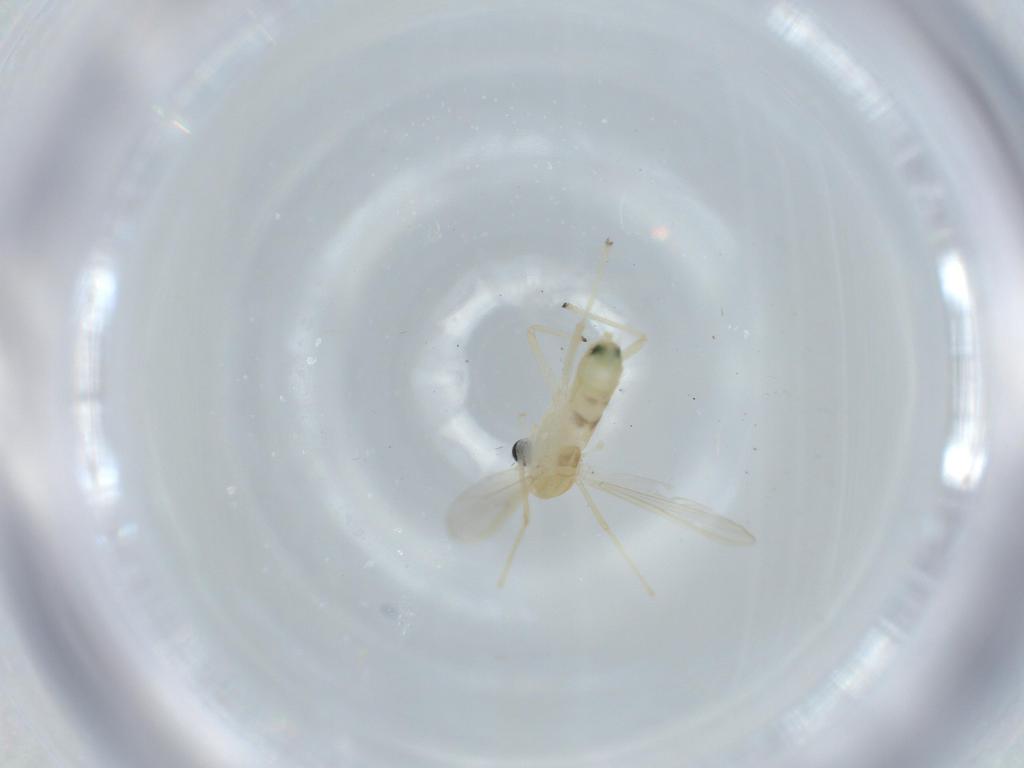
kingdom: Animalia
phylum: Arthropoda
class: Insecta
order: Diptera
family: Chironomidae
